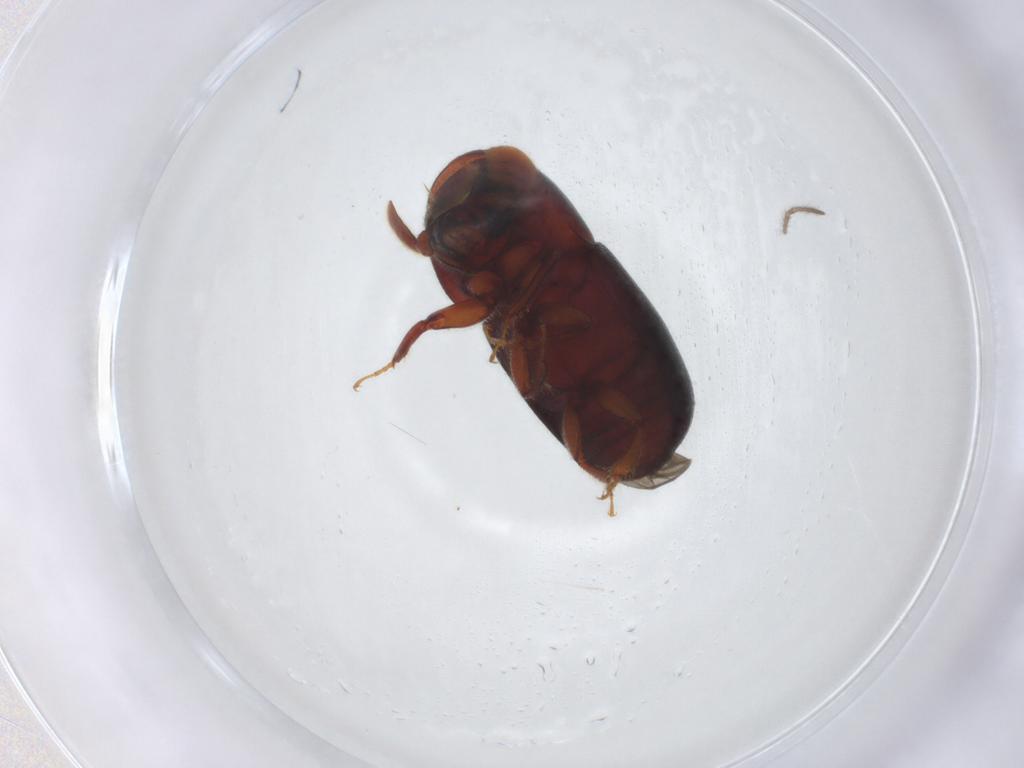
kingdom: Animalia
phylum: Arthropoda
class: Insecta
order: Coleoptera
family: Curculionidae
